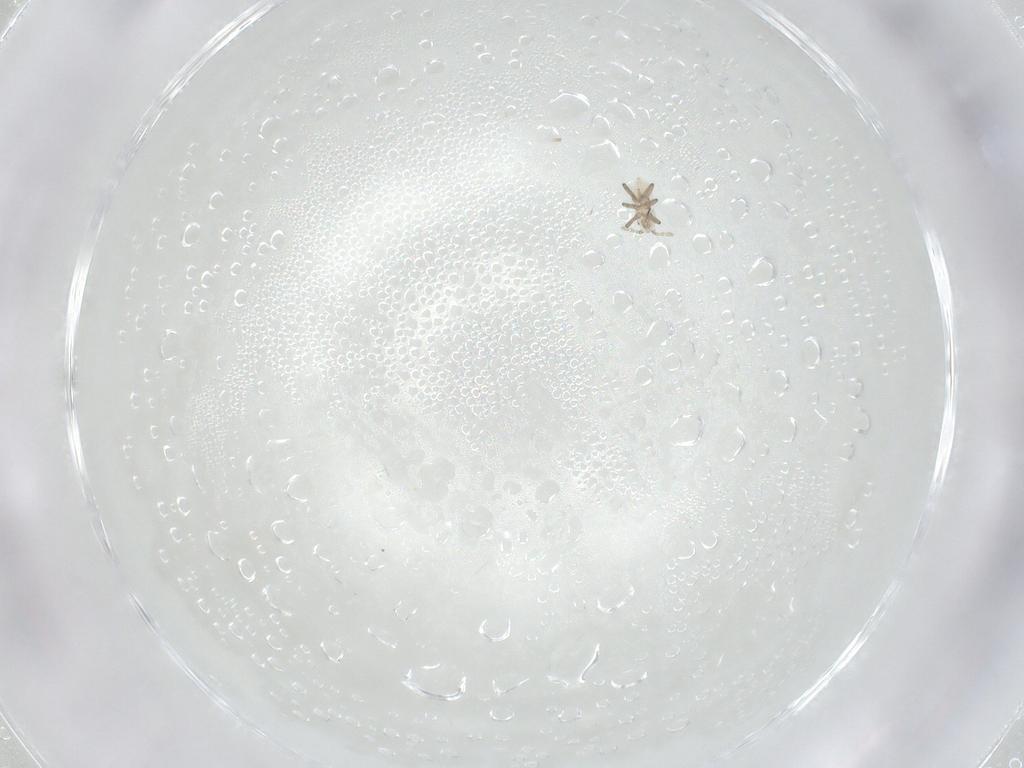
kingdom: Animalia
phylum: Arthropoda
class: Insecta
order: Hemiptera
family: Aphididae
